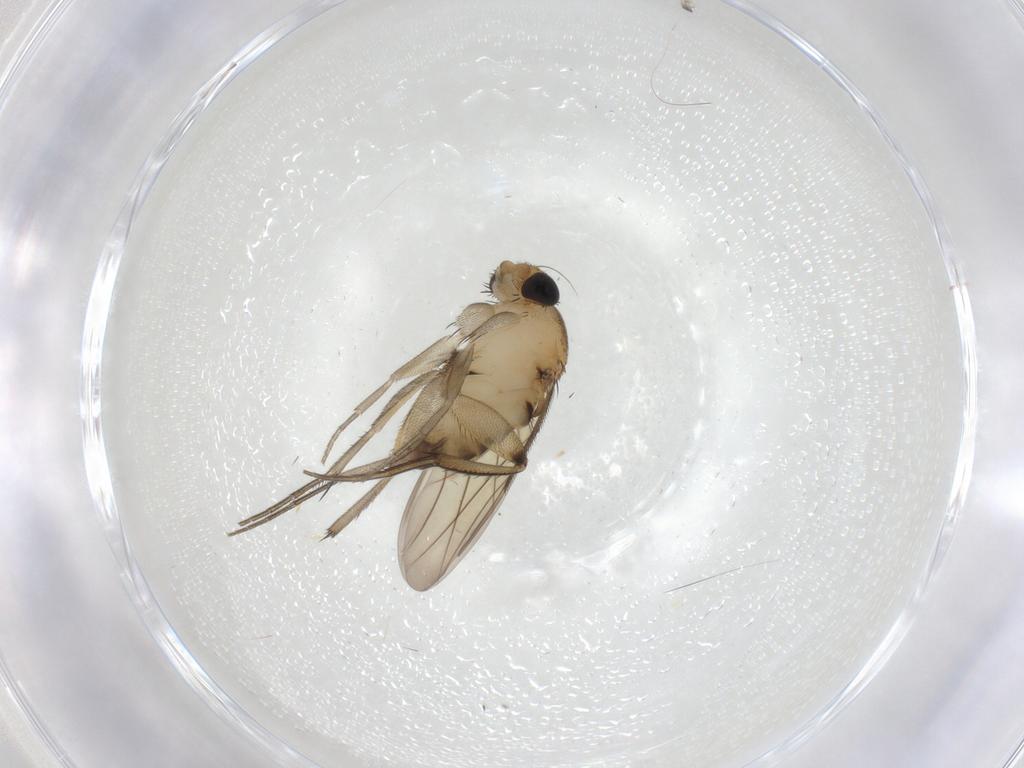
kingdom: Animalia
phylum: Arthropoda
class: Insecta
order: Diptera
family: Phoridae
